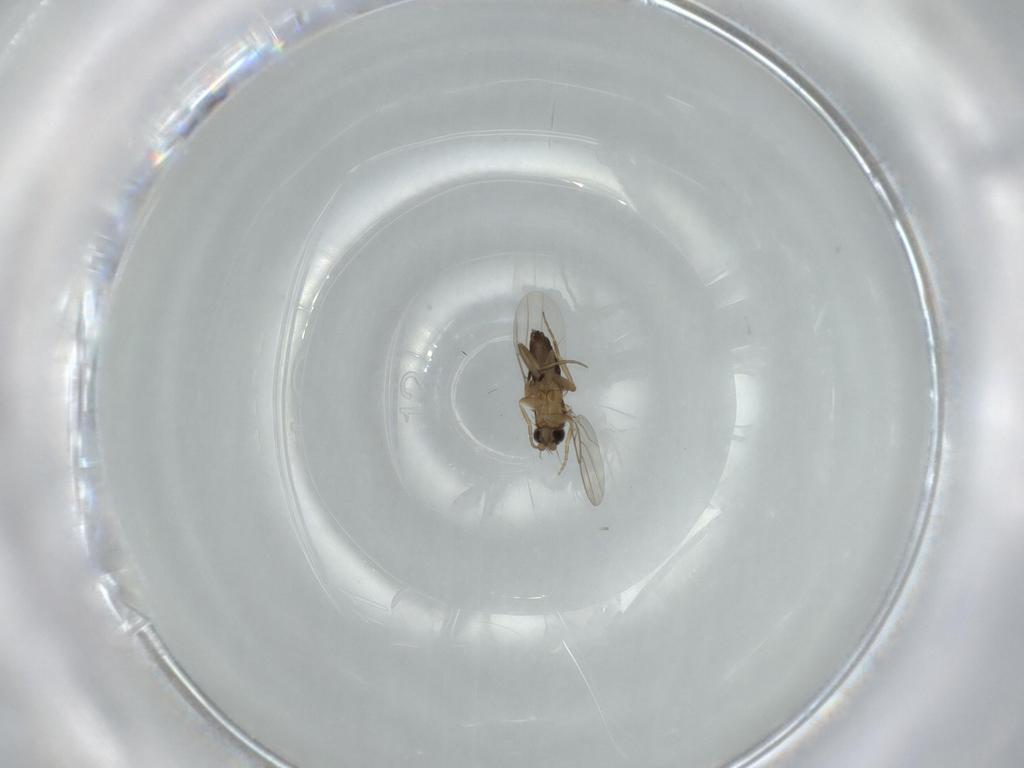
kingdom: Animalia
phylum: Arthropoda
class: Insecta
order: Diptera
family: Phoridae
